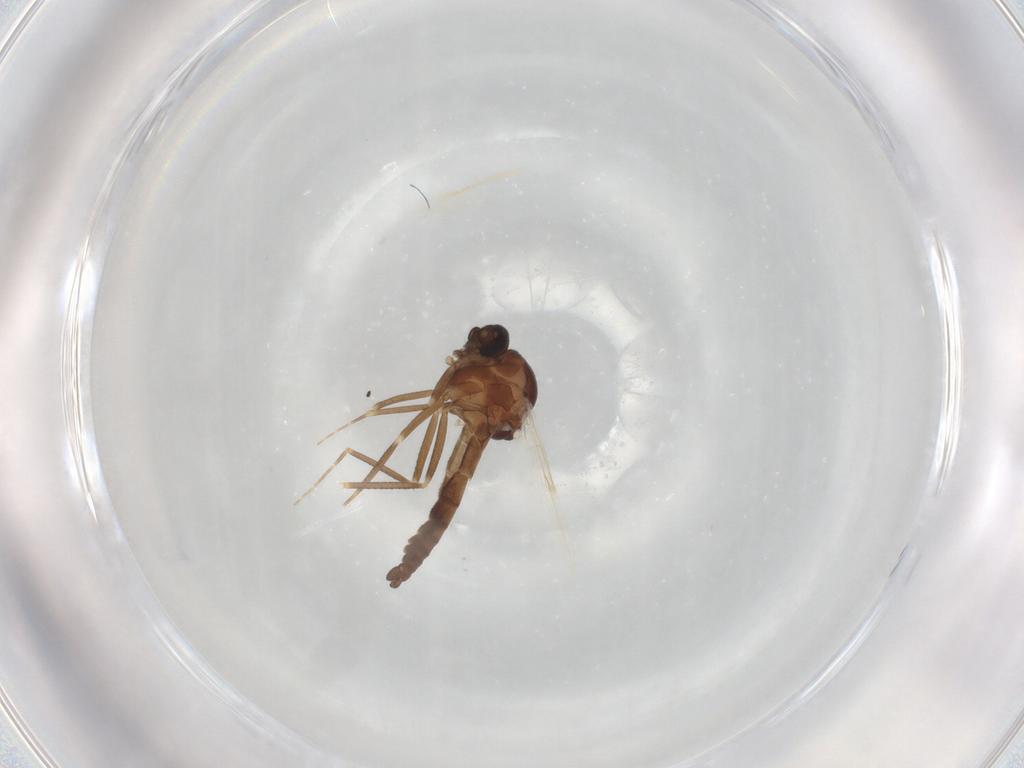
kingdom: Animalia
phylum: Arthropoda
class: Insecta
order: Diptera
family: Ceratopogonidae
